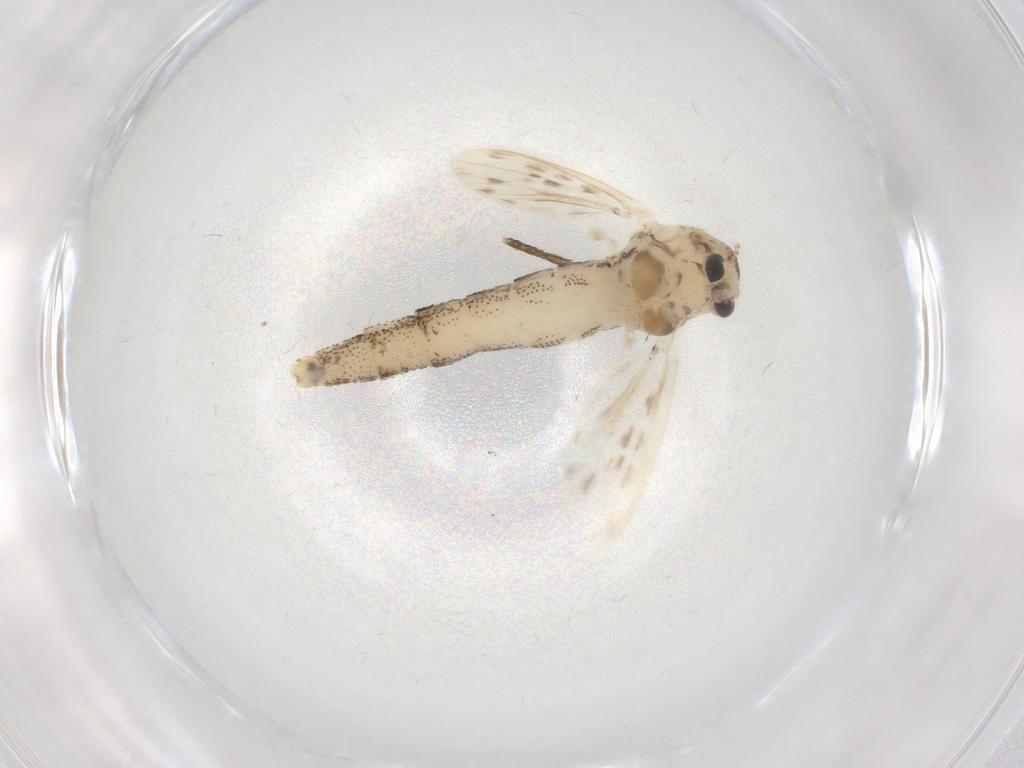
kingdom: Animalia
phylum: Arthropoda
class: Insecta
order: Diptera
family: Chaoboridae
